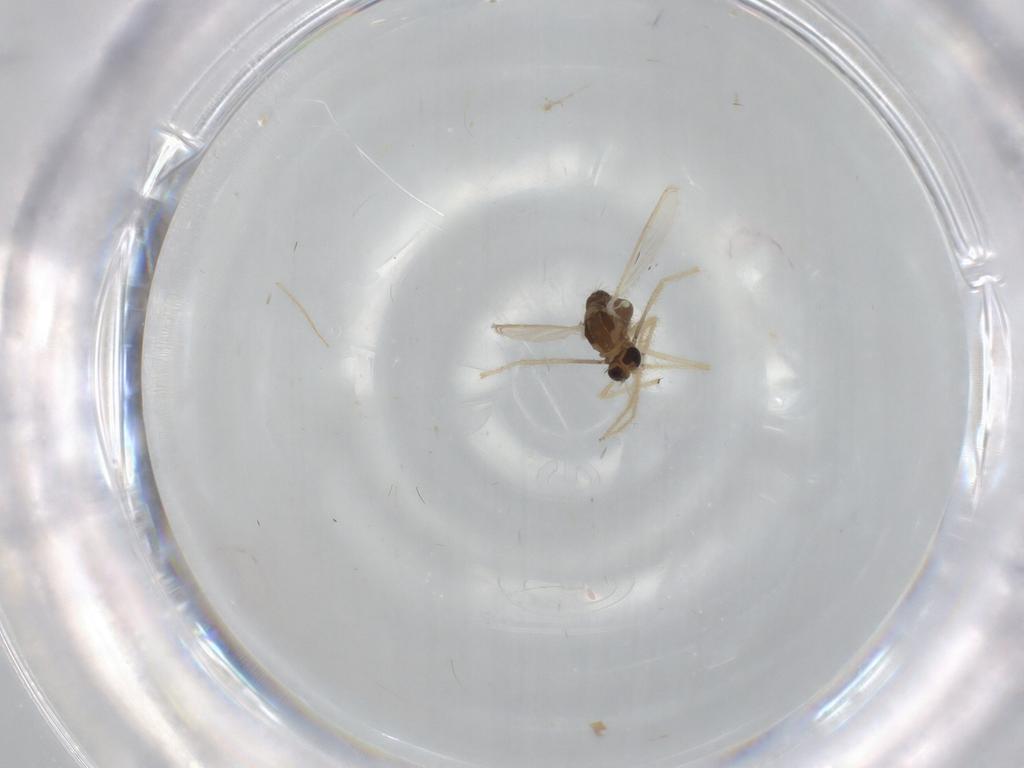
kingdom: Animalia
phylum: Arthropoda
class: Insecta
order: Diptera
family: Chironomidae
